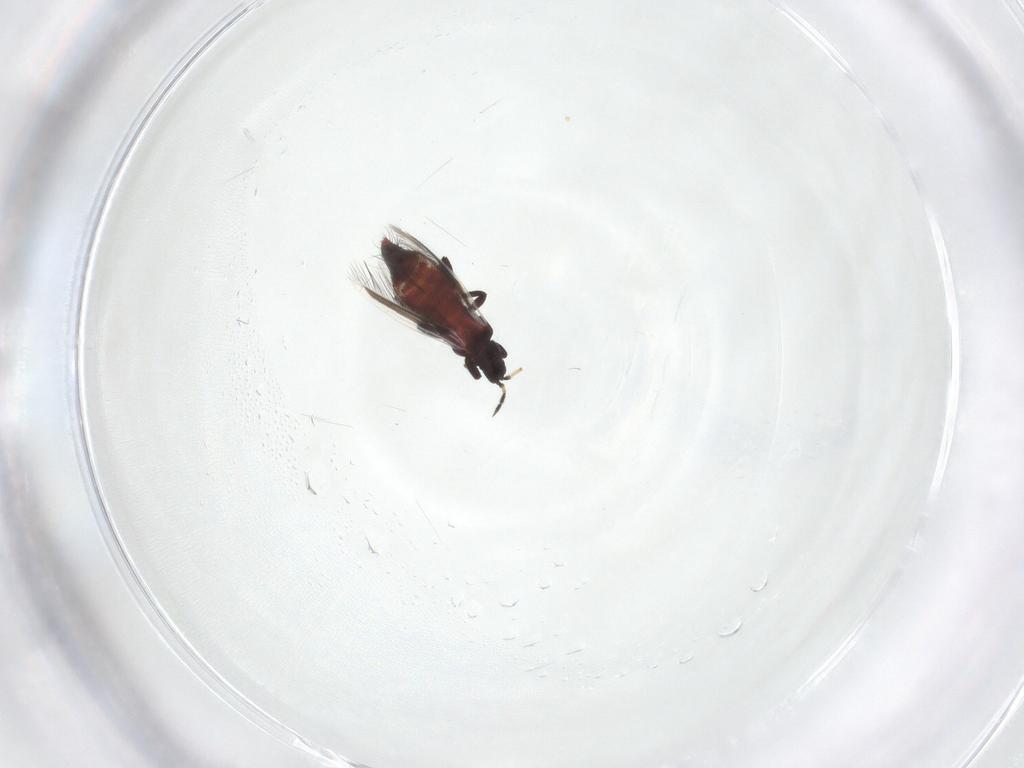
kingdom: Animalia
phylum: Arthropoda
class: Insecta
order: Thysanoptera
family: Aeolothripidae
